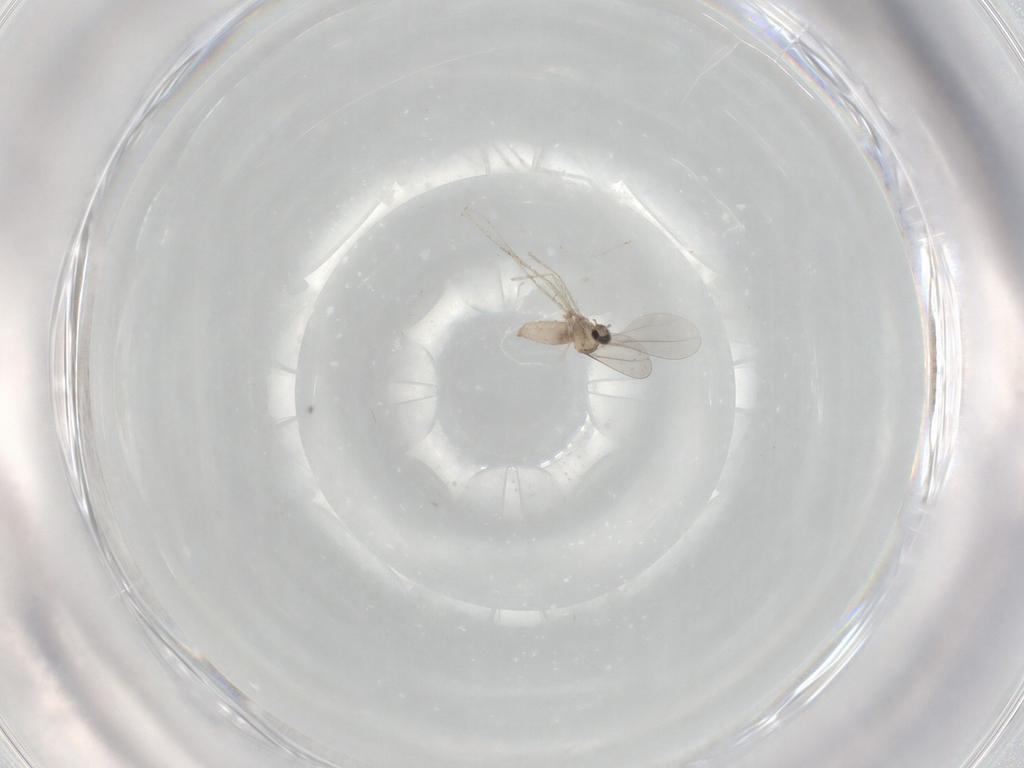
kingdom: Animalia
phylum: Arthropoda
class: Insecta
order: Diptera
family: Cecidomyiidae
